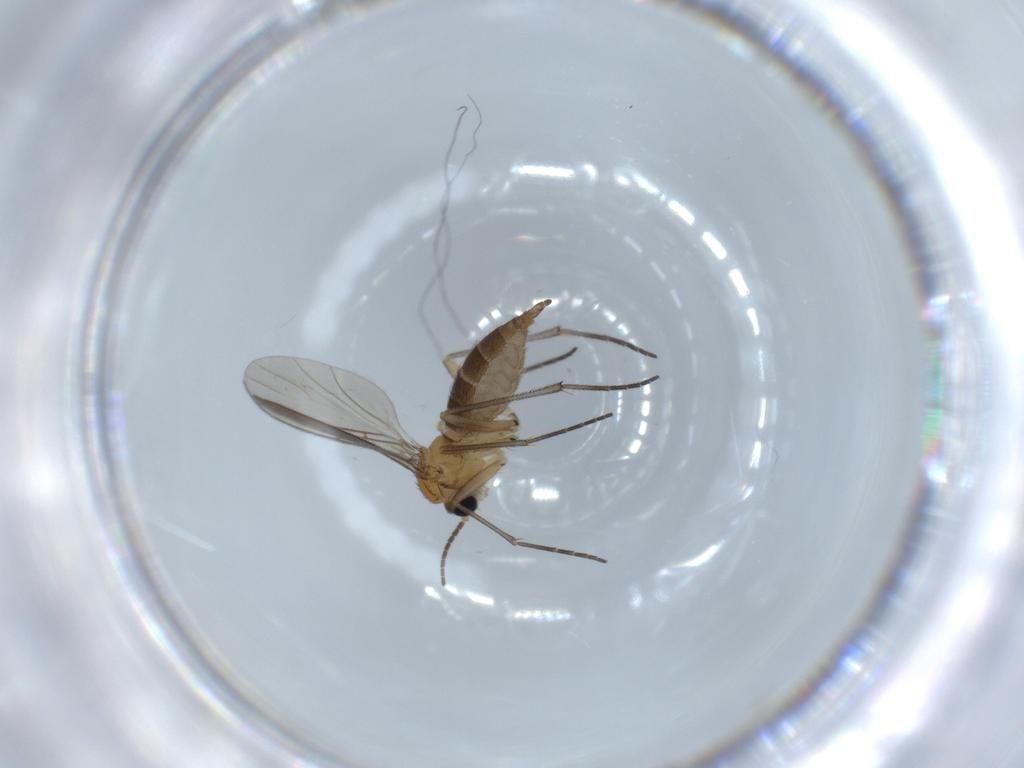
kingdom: Animalia
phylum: Arthropoda
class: Insecta
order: Diptera
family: Sciaridae
